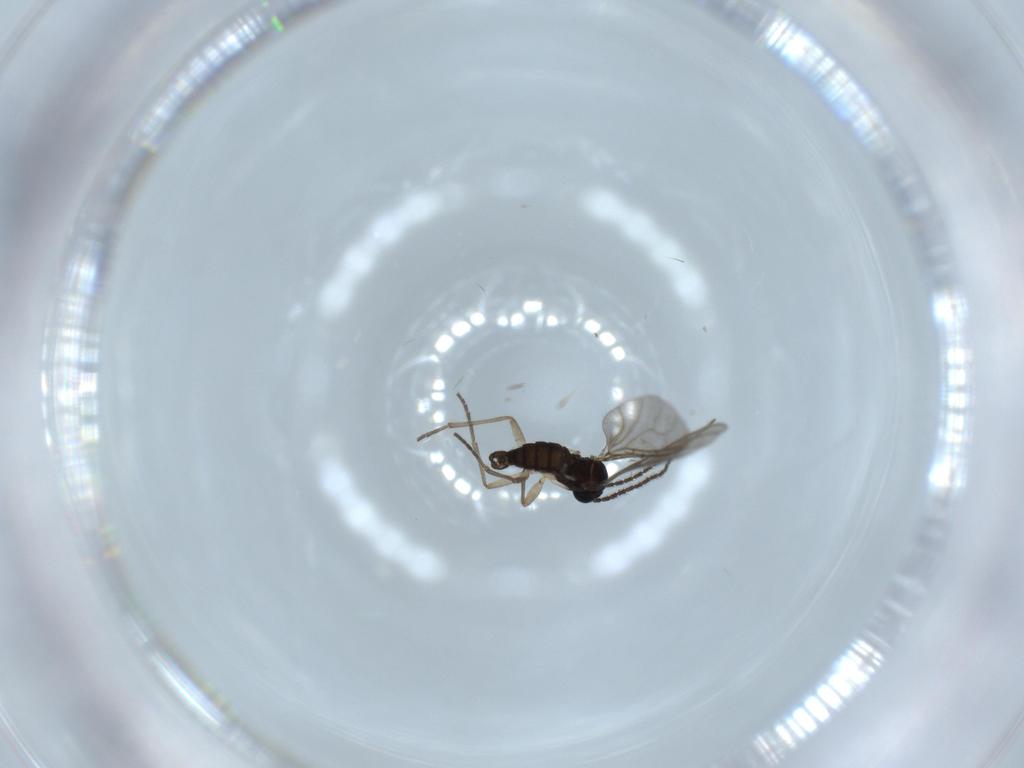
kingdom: Animalia
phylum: Arthropoda
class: Insecta
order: Diptera
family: Sciaridae
